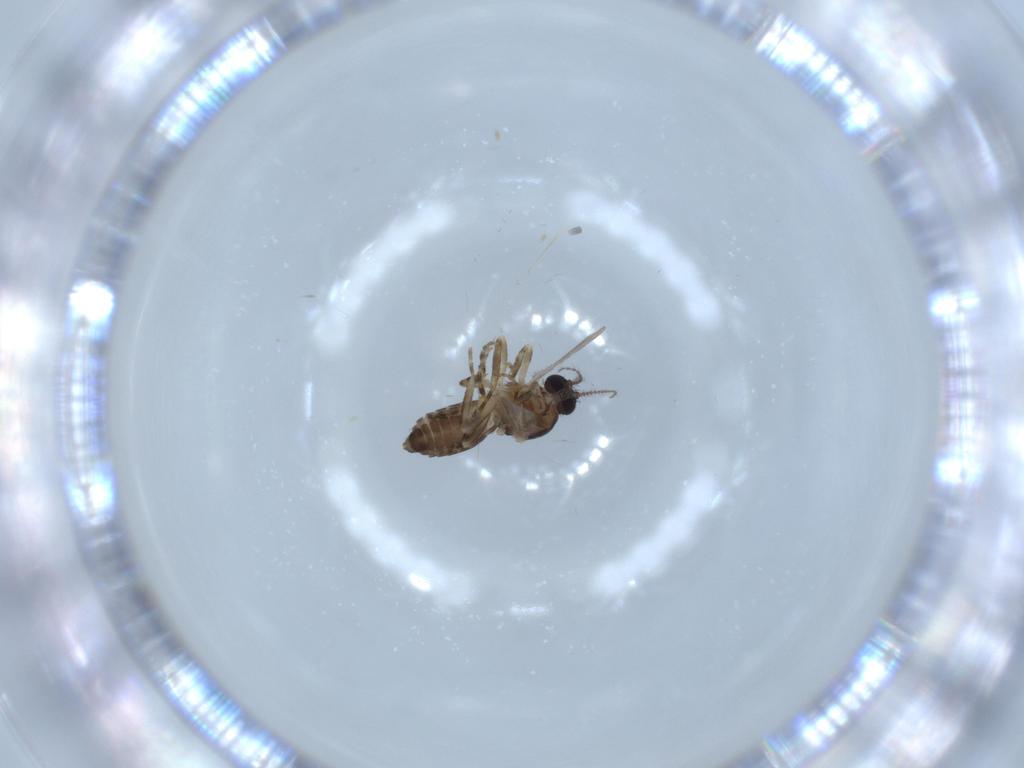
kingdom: Animalia
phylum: Arthropoda
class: Insecta
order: Diptera
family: Ceratopogonidae
